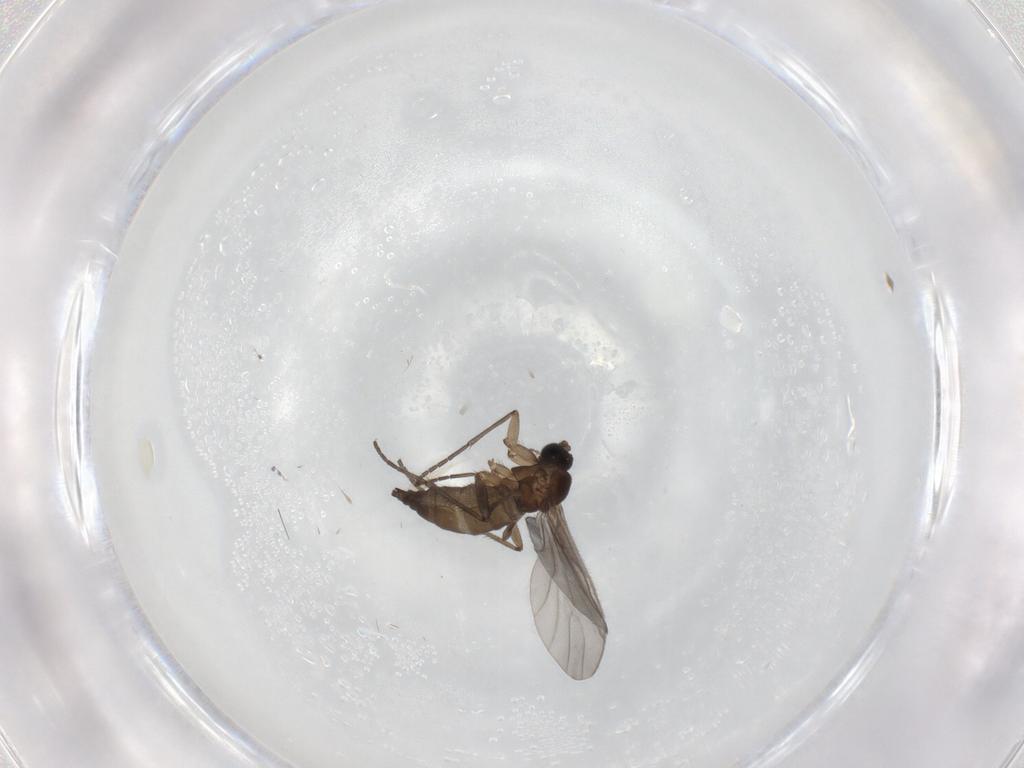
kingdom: Animalia
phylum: Arthropoda
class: Insecta
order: Diptera
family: Sciaridae
